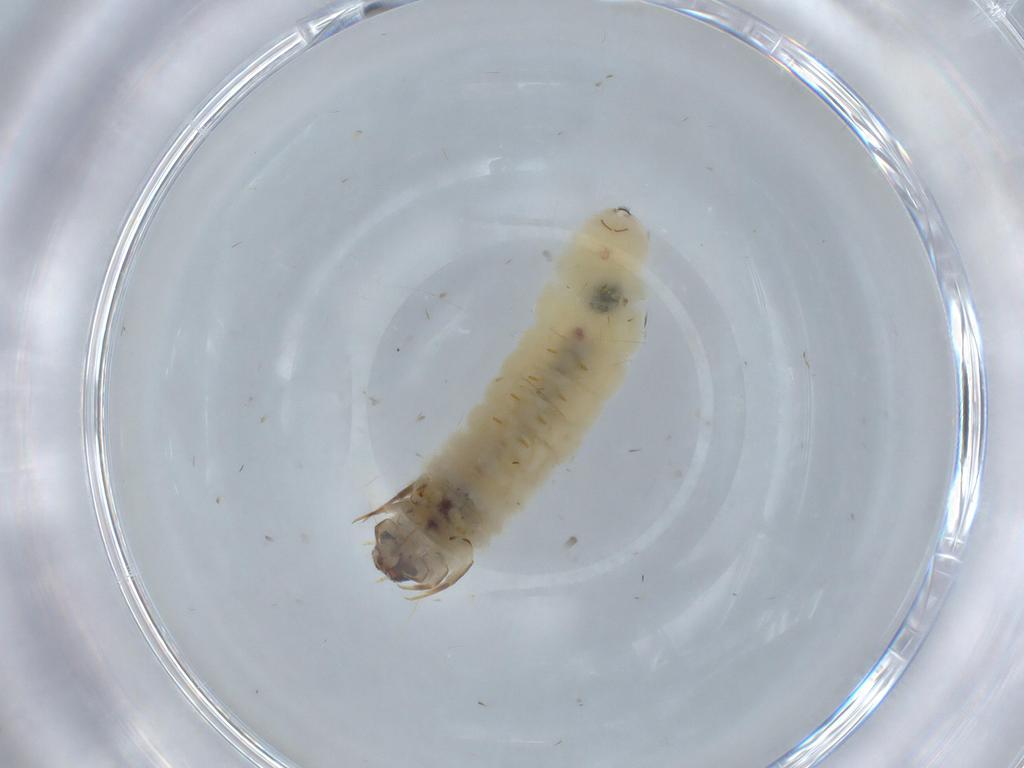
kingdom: Animalia
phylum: Arthropoda
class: Insecta
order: Lepidoptera
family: Tineidae
